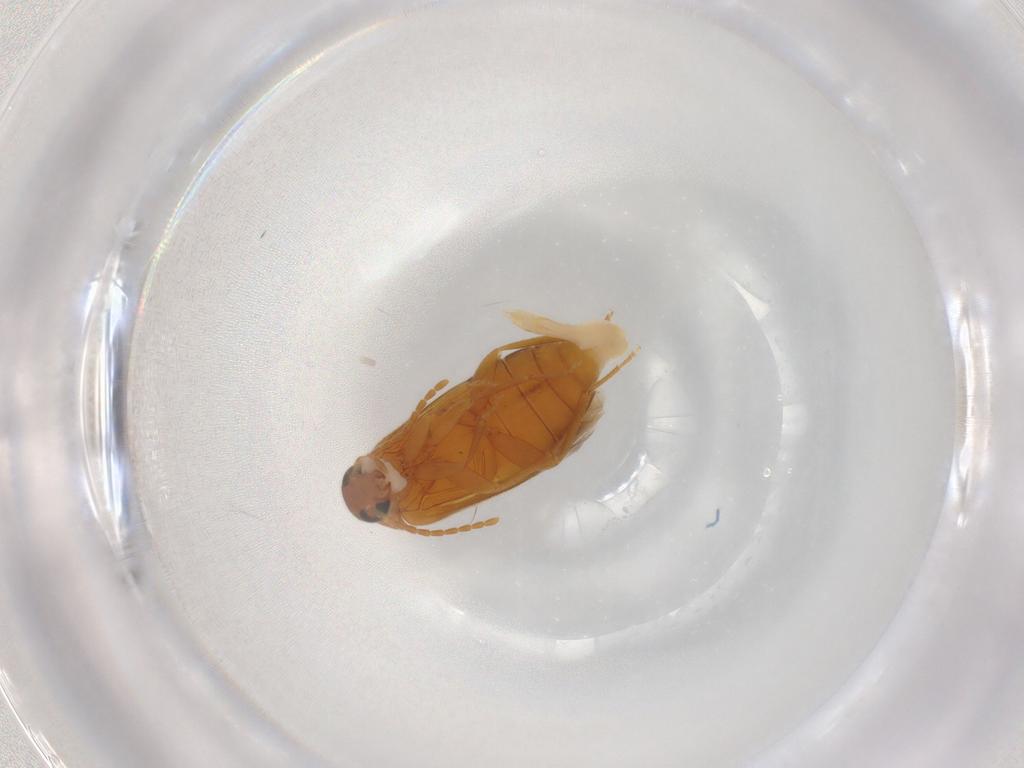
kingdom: Animalia
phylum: Arthropoda
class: Insecta
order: Coleoptera
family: Scraptiidae
